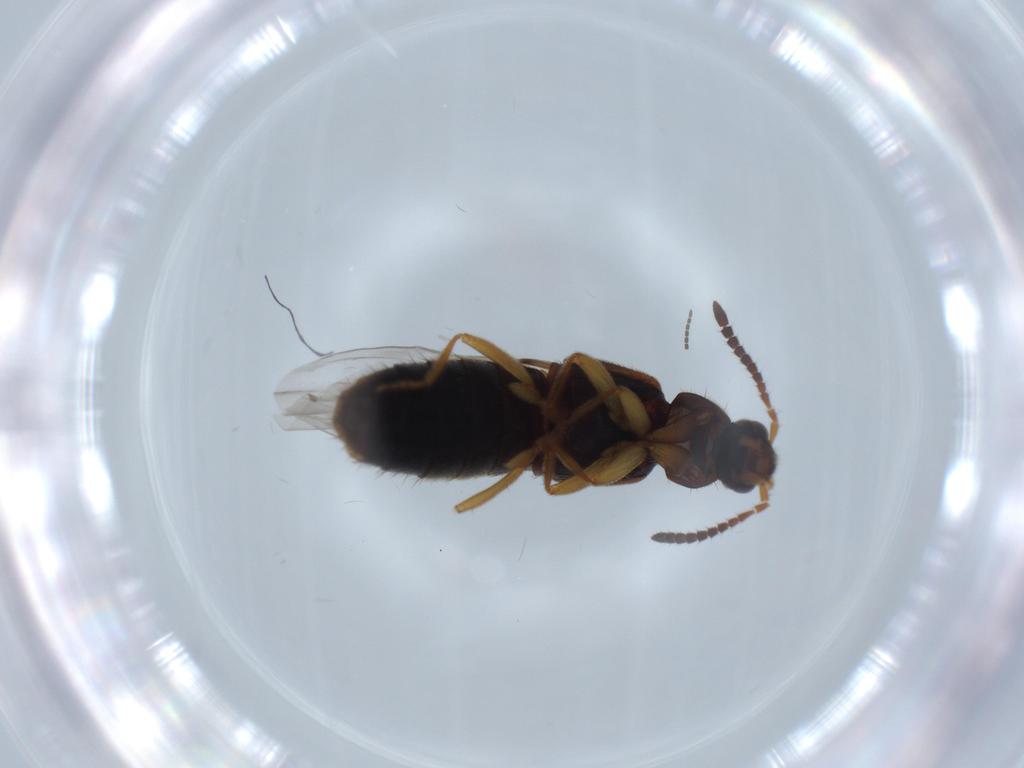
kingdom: Animalia
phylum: Arthropoda
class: Insecta
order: Coleoptera
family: Staphylinidae
